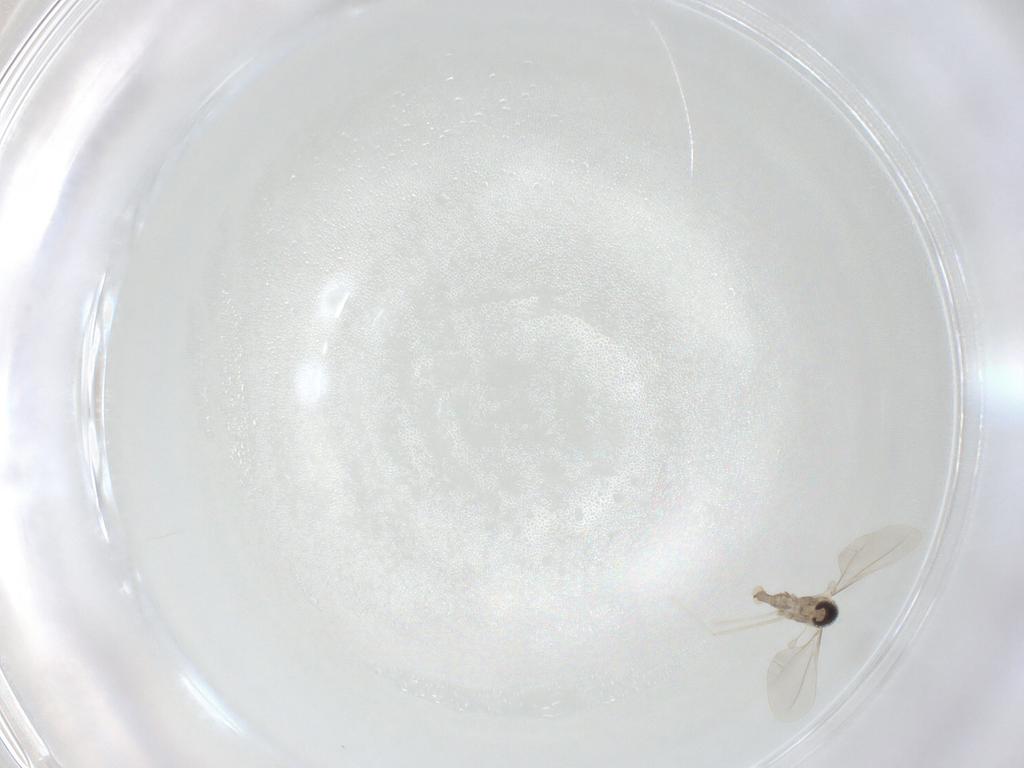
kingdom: Animalia
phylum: Arthropoda
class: Insecta
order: Diptera
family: Cecidomyiidae
